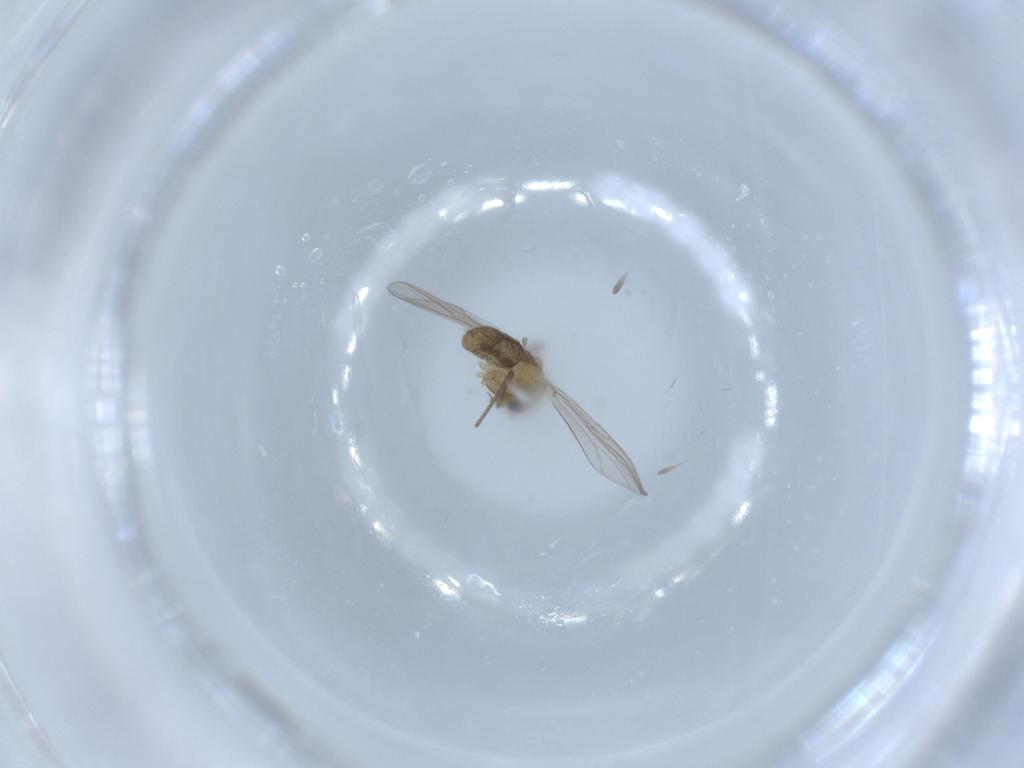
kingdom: Animalia
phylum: Arthropoda
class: Insecta
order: Diptera
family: Chironomidae
